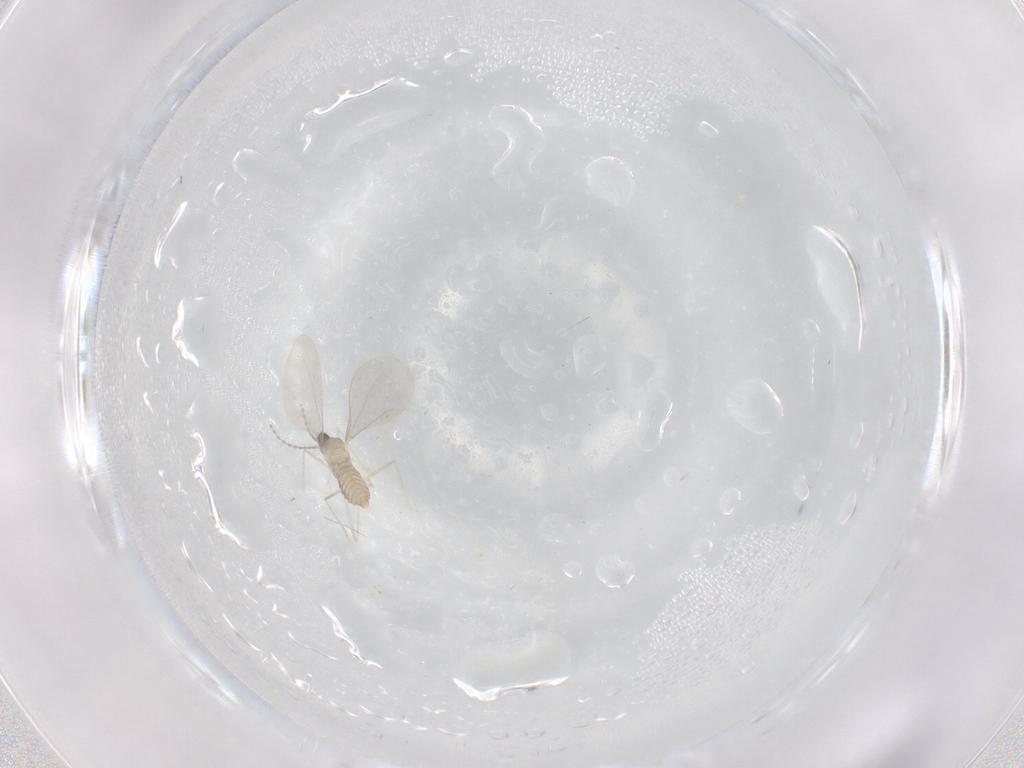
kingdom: Animalia
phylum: Arthropoda
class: Insecta
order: Diptera
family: Cecidomyiidae
